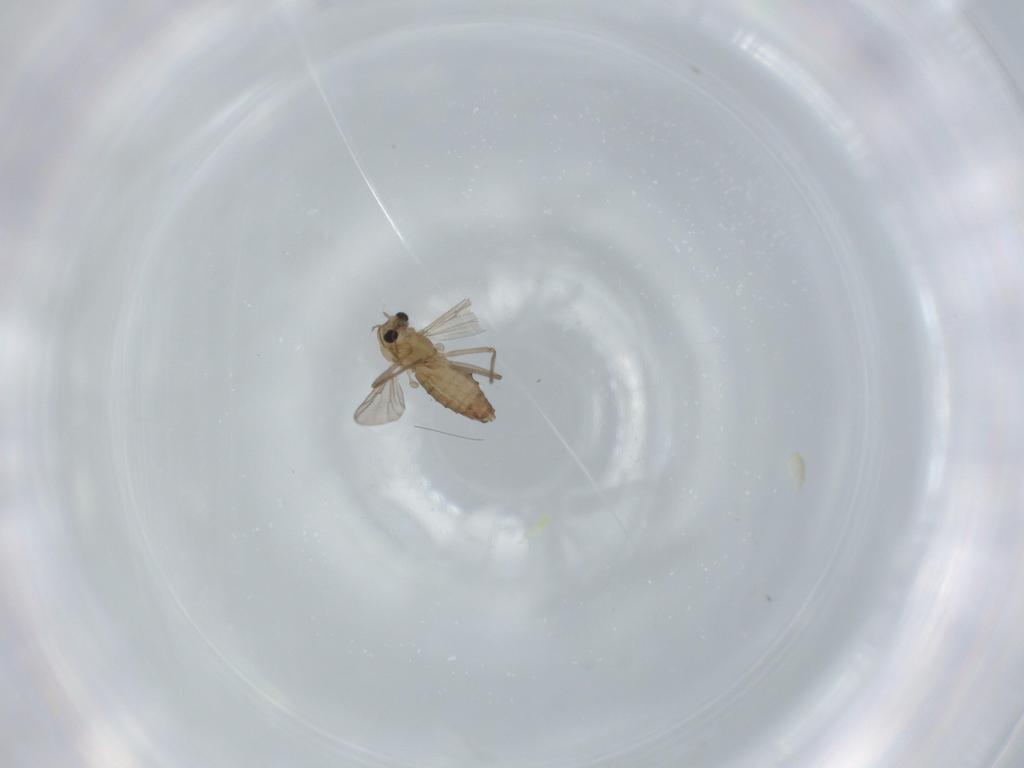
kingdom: Animalia
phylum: Arthropoda
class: Insecta
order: Diptera
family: Chironomidae
